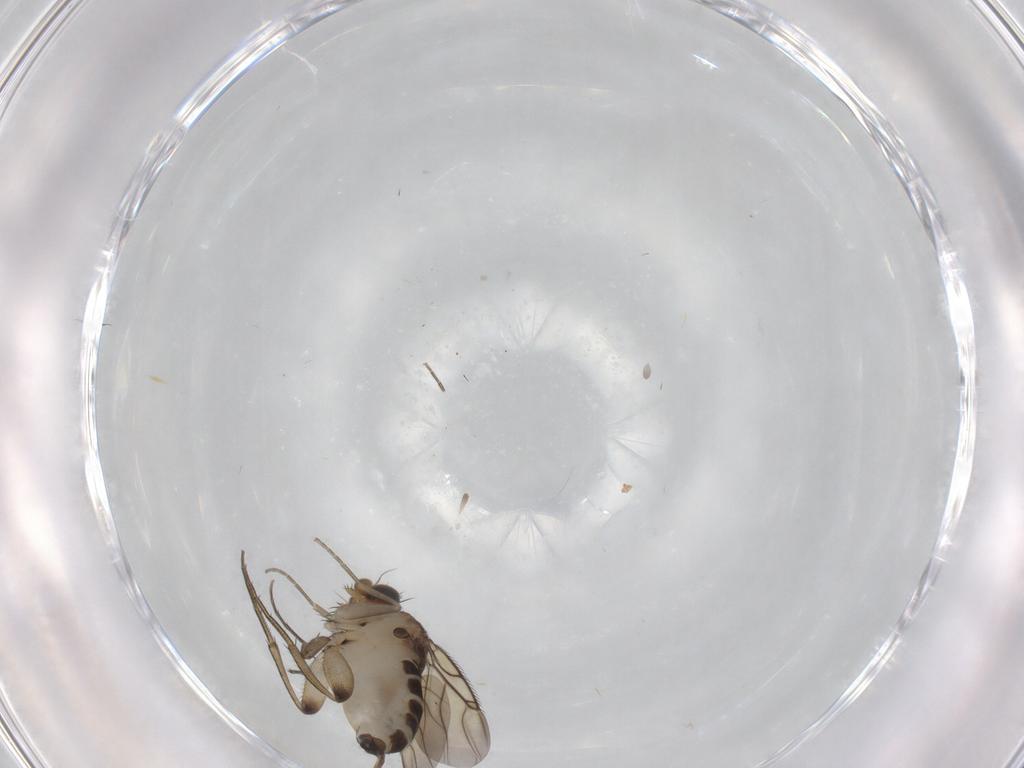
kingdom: Animalia
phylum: Arthropoda
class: Insecta
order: Diptera
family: Phoridae
